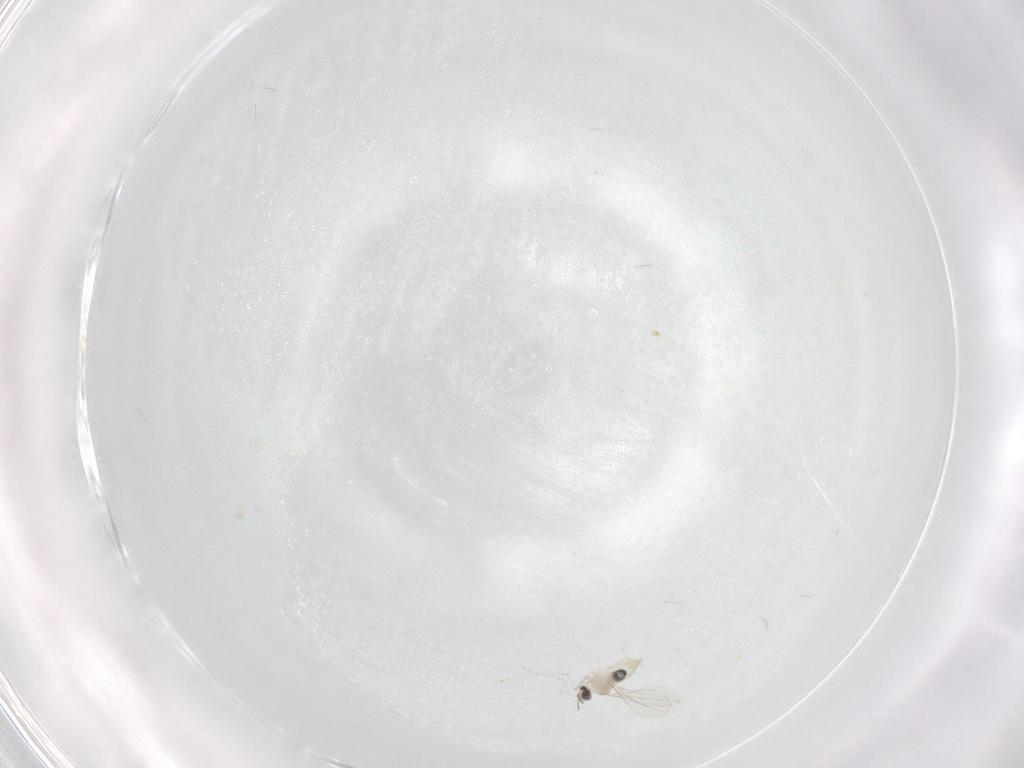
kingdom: Animalia
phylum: Arthropoda
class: Insecta
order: Diptera
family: Cecidomyiidae
